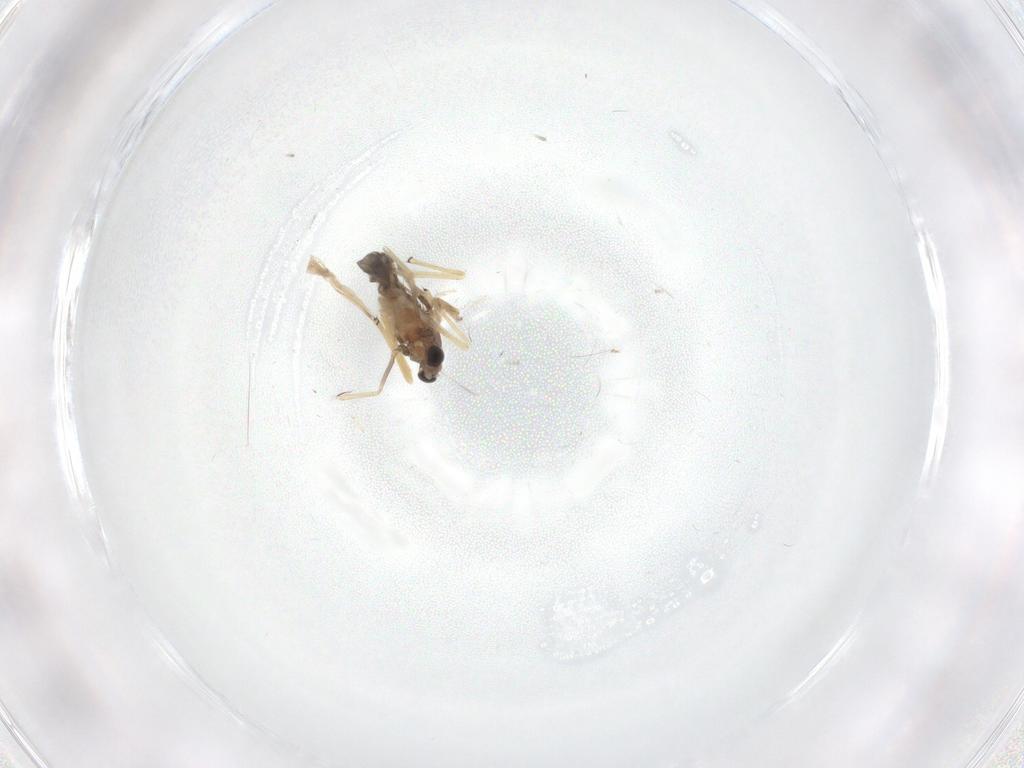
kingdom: Animalia
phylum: Arthropoda
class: Insecta
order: Diptera
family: Chironomidae
